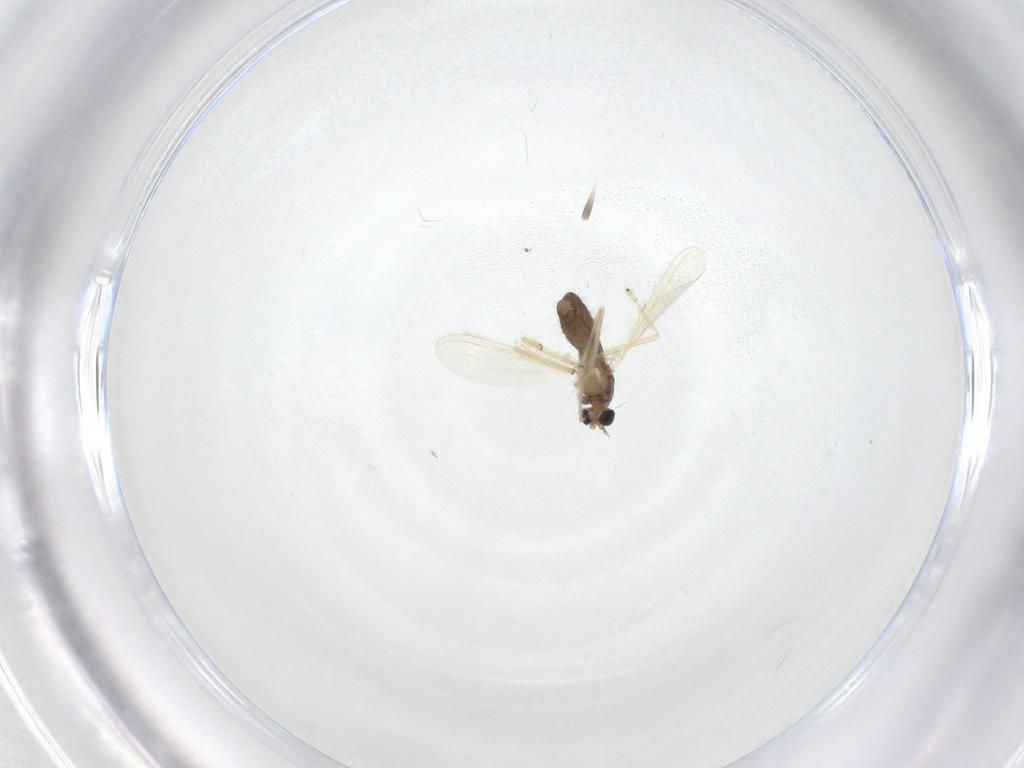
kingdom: Animalia
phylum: Arthropoda
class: Insecta
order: Diptera
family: Chironomidae
